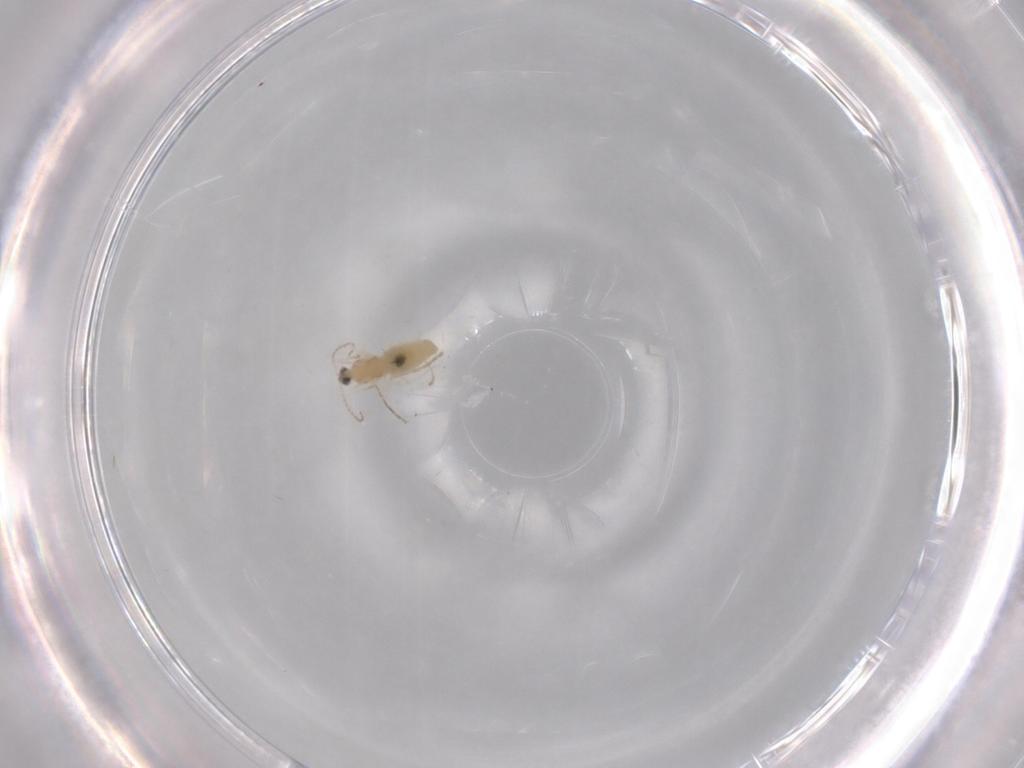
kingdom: Animalia
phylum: Arthropoda
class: Insecta
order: Diptera
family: Cecidomyiidae
